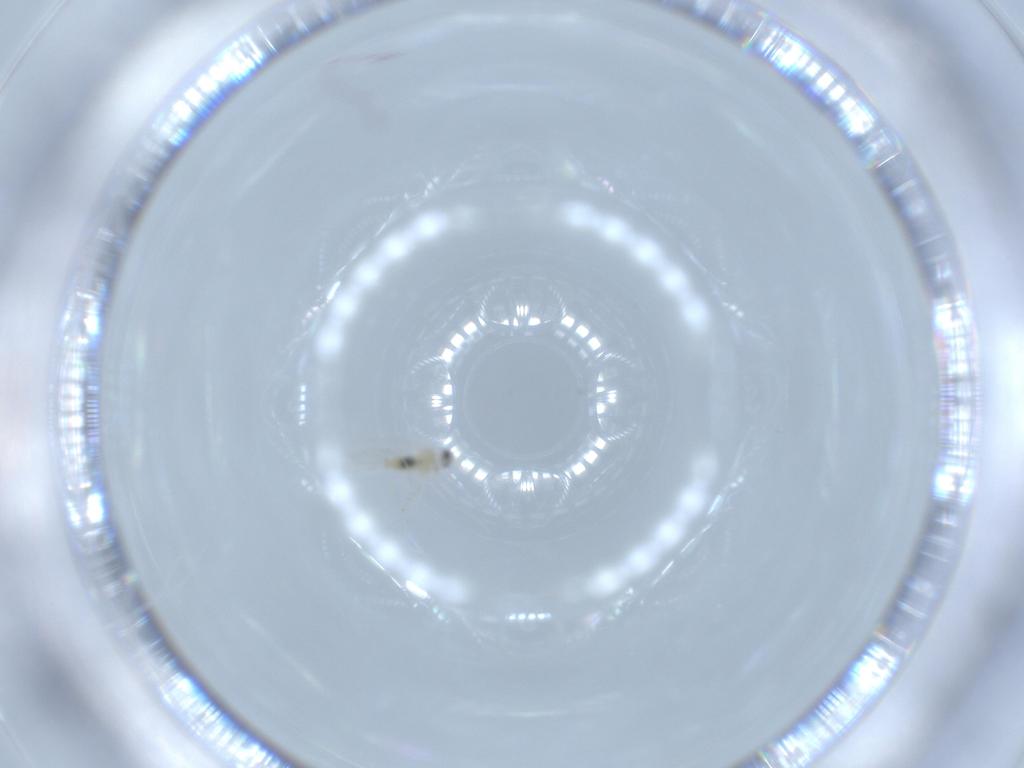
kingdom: Animalia
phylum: Arthropoda
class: Insecta
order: Diptera
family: Cecidomyiidae
